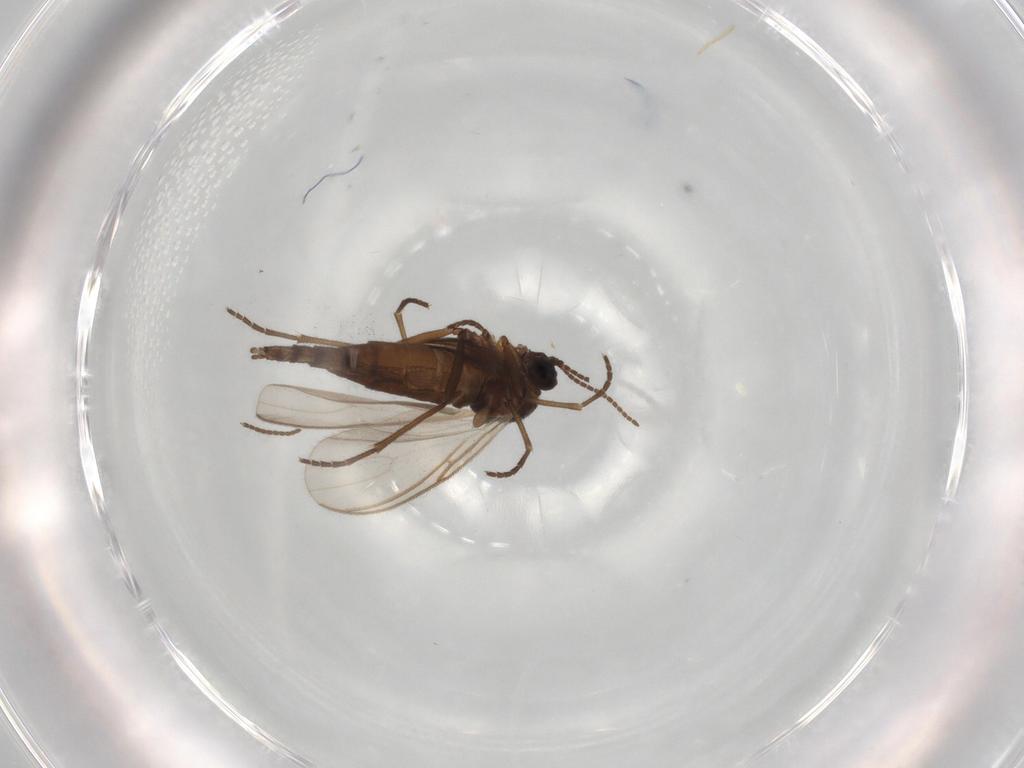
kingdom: Animalia
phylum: Arthropoda
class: Insecta
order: Diptera
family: Sciaridae
